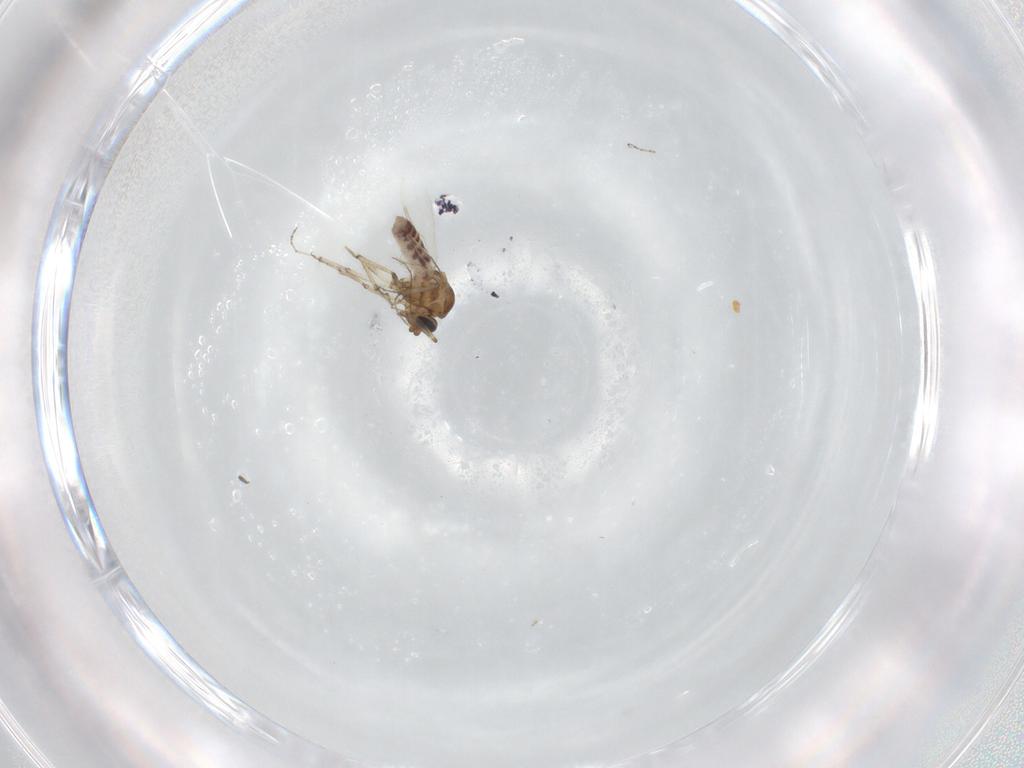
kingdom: Animalia
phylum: Arthropoda
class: Insecta
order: Diptera
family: Ceratopogonidae
